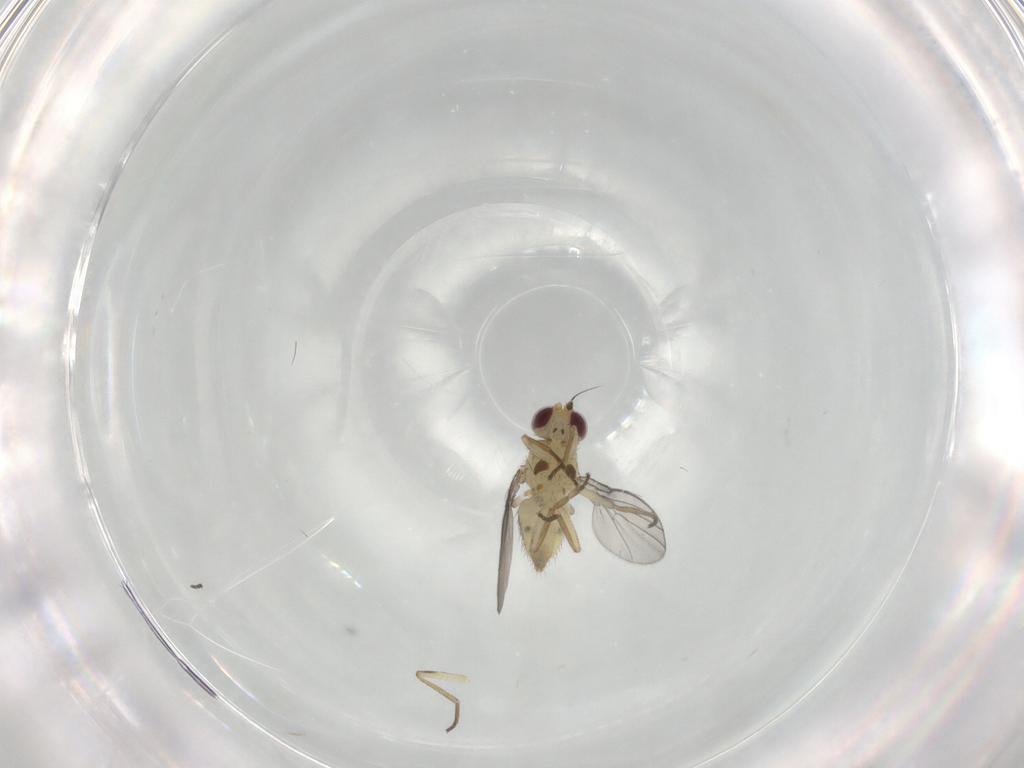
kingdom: Animalia
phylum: Arthropoda
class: Insecta
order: Diptera
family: Agromyzidae
